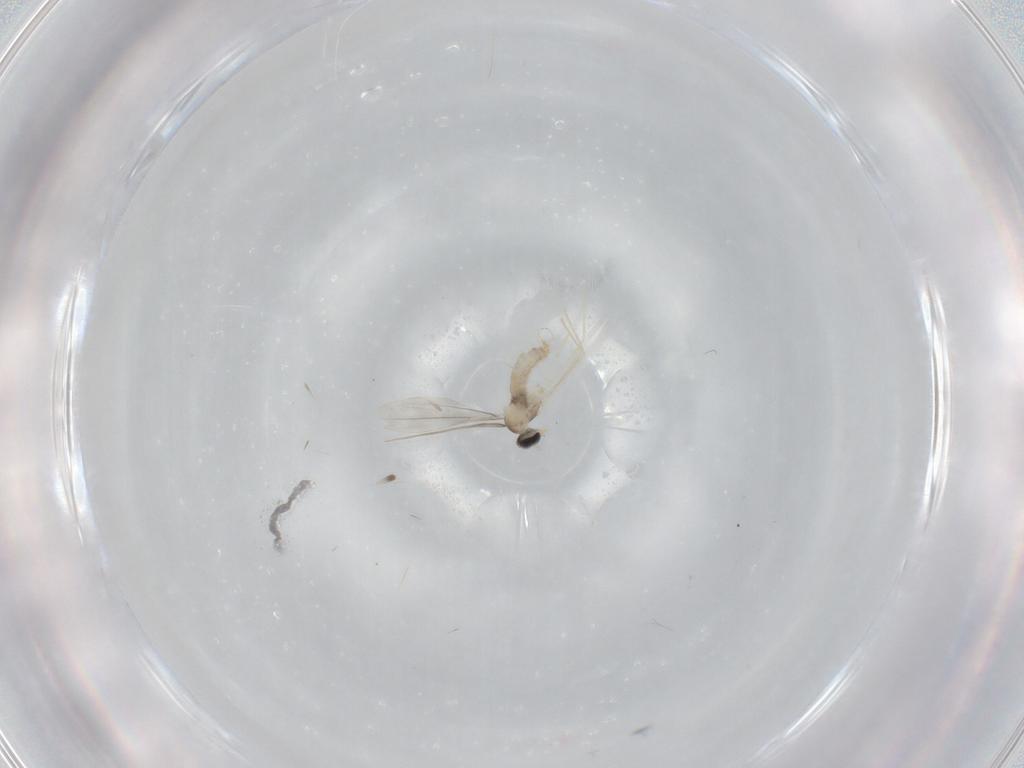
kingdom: Animalia
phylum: Arthropoda
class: Insecta
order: Diptera
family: Cecidomyiidae
